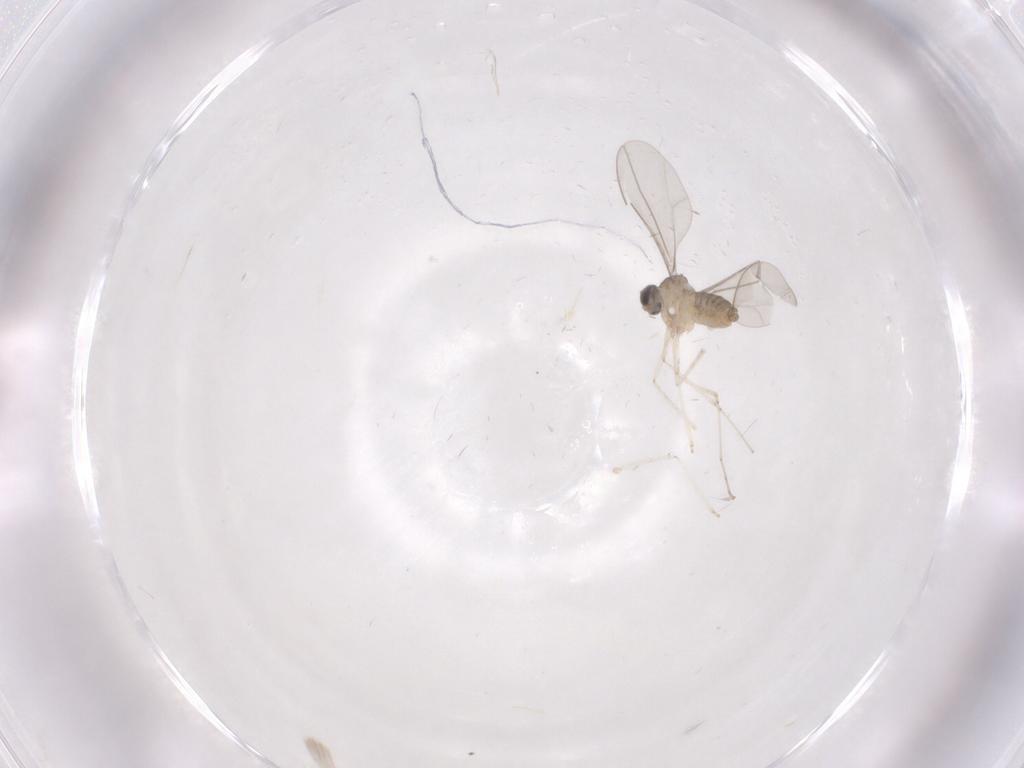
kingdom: Animalia
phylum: Arthropoda
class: Insecta
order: Diptera
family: Cecidomyiidae
